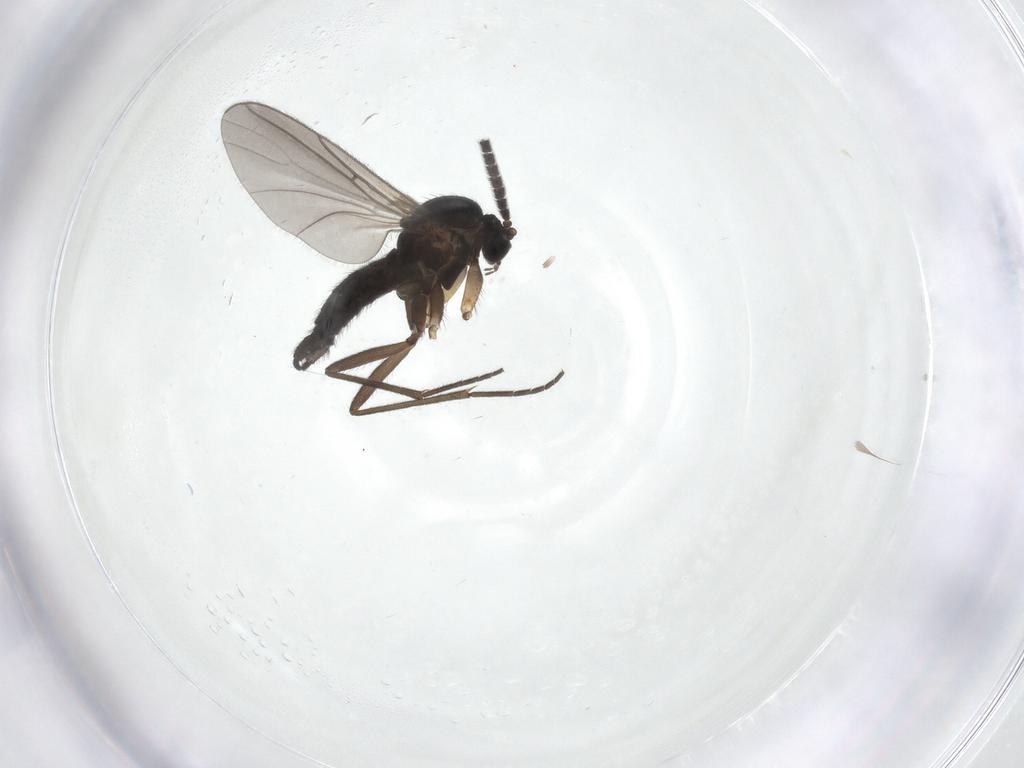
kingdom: Animalia
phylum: Arthropoda
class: Insecta
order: Diptera
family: Sciaridae
